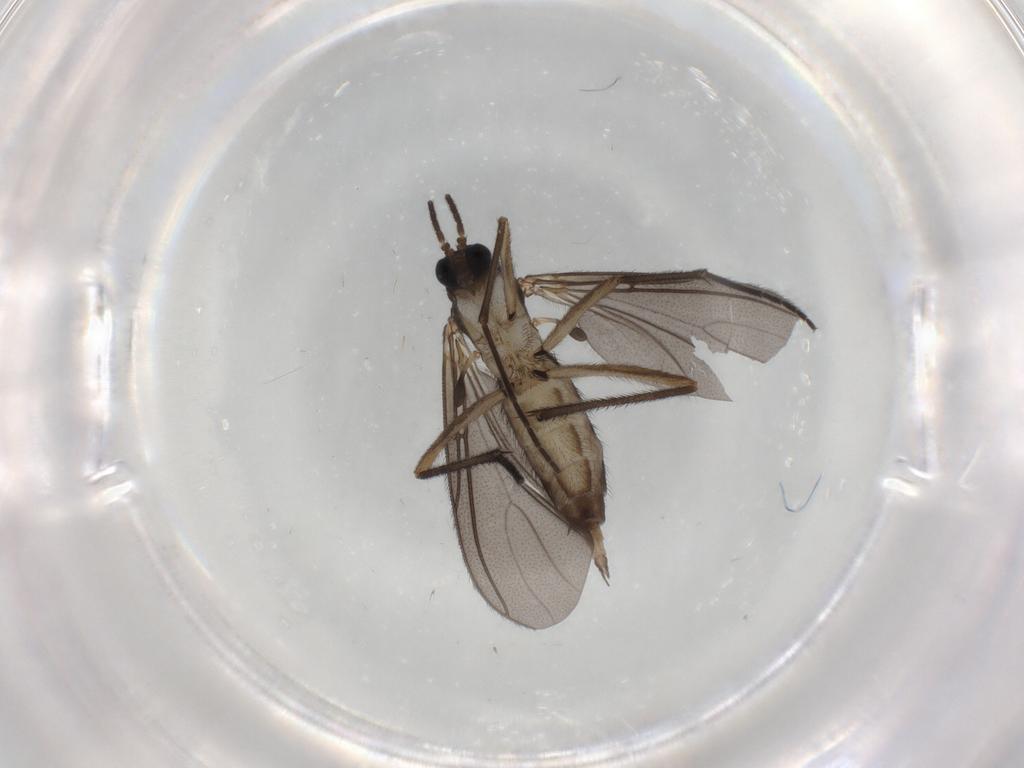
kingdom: Animalia
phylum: Arthropoda
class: Insecta
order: Diptera
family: Sciaridae
